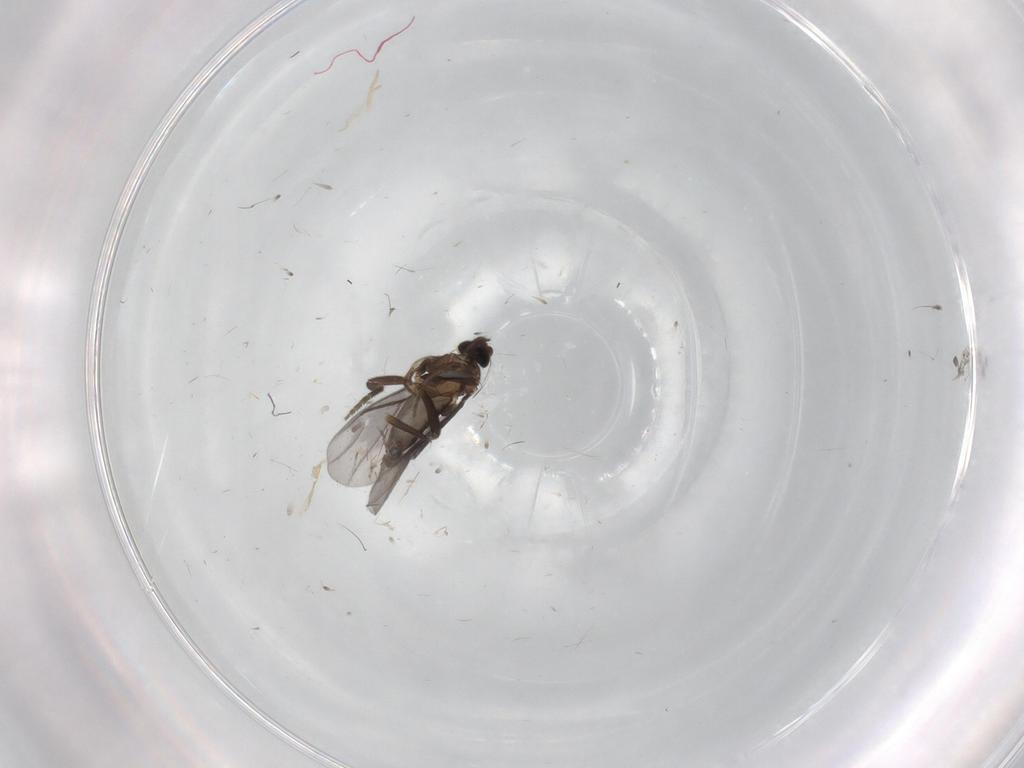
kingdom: Animalia
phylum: Arthropoda
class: Insecta
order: Diptera
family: Cecidomyiidae
